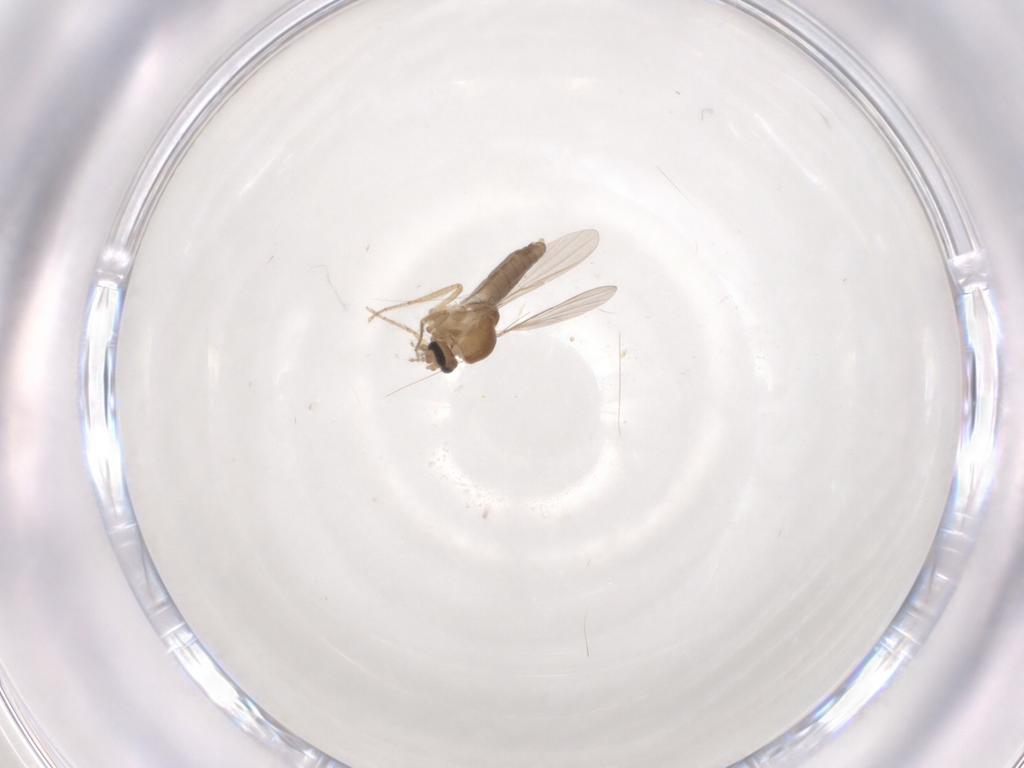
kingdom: Animalia
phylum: Arthropoda
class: Insecta
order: Diptera
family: Ceratopogonidae
